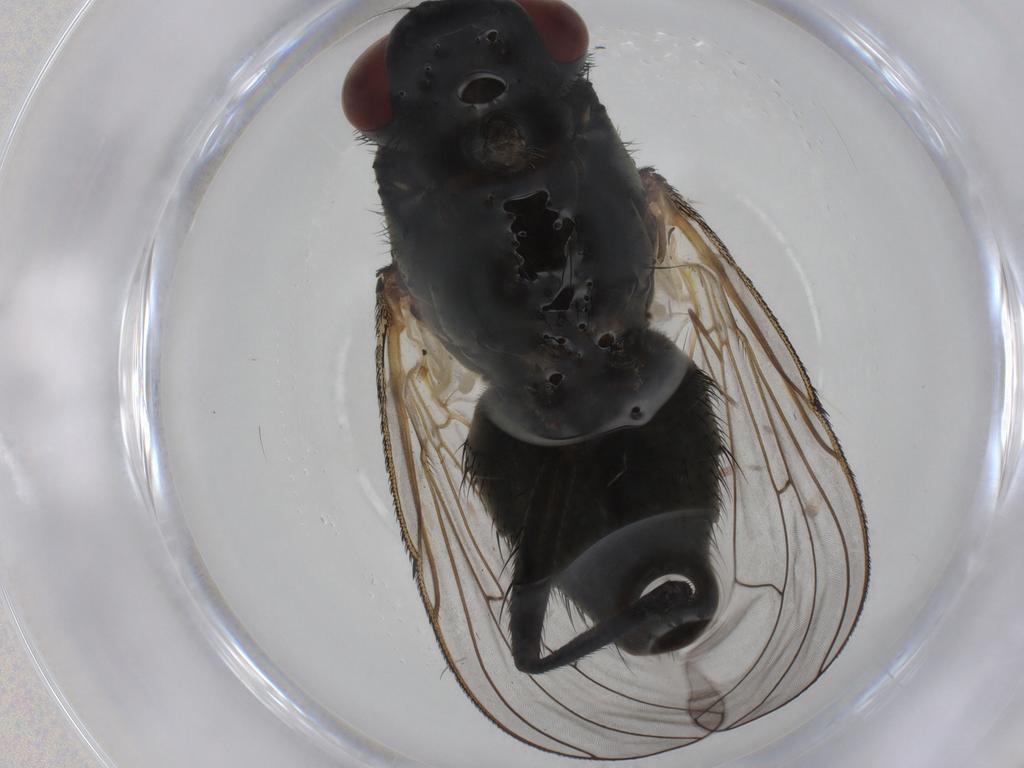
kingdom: Animalia
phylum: Arthropoda
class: Insecta
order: Diptera
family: Muscidae
